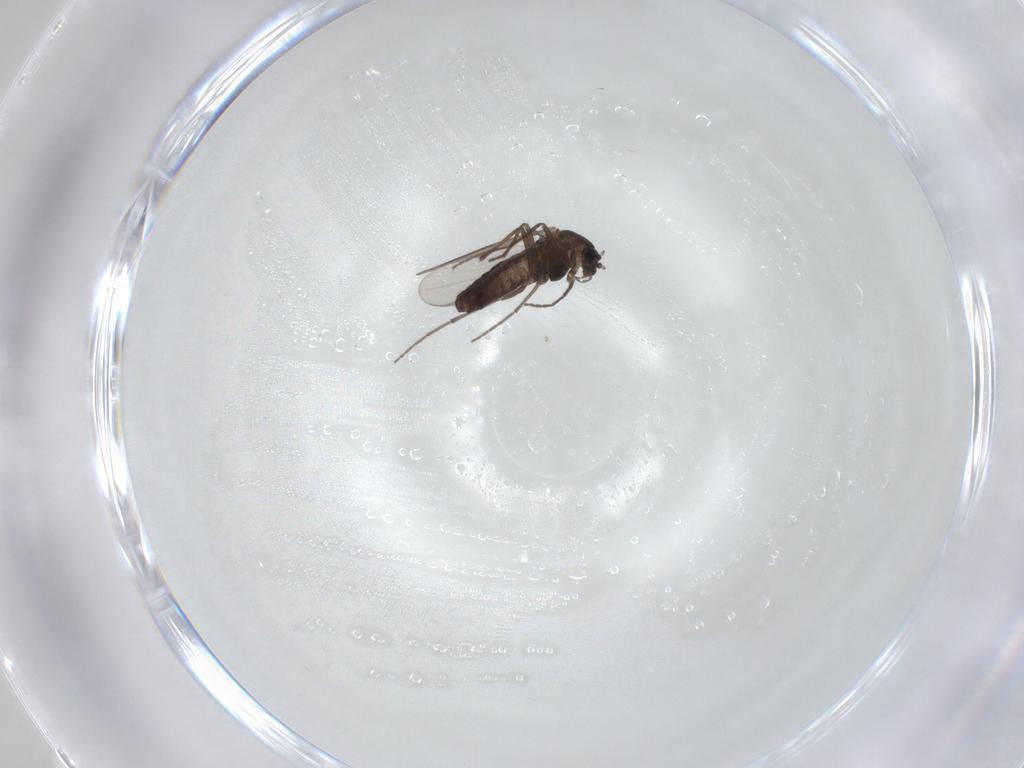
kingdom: Animalia
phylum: Arthropoda
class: Insecta
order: Diptera
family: Chironomidae
